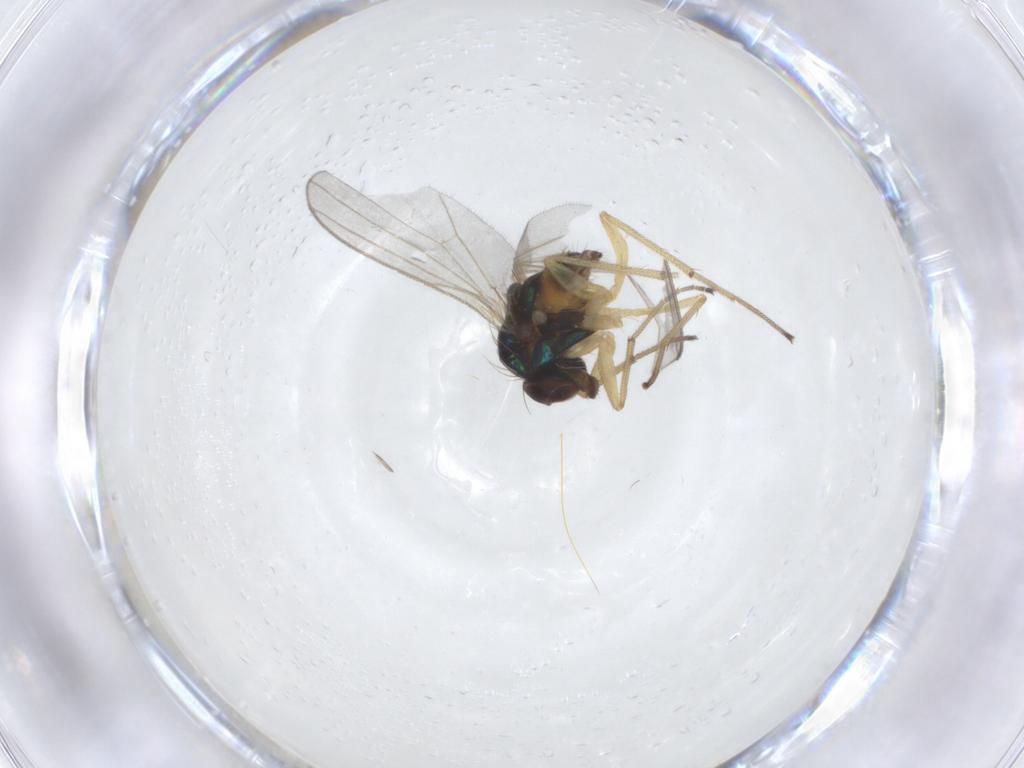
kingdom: Animalia
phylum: Arthropoda
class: Insecta
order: Diptera
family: Dolichopodidae
